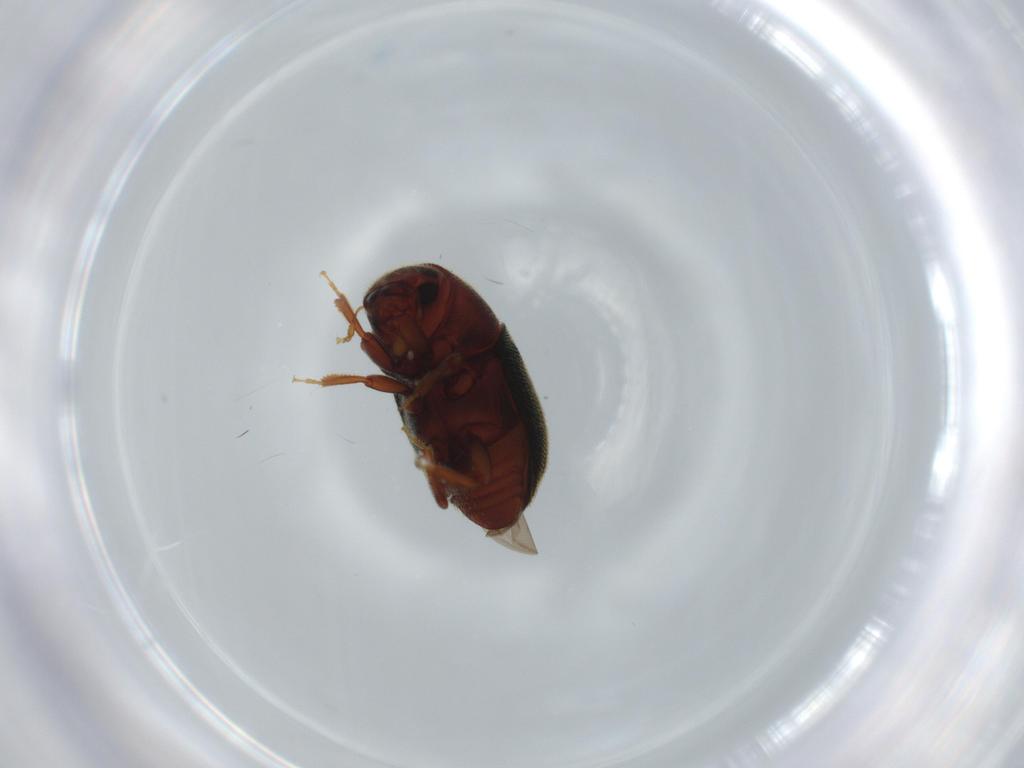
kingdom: Animalia
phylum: Arthropoda
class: Insecta
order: Coleoptera
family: Curculionidae
